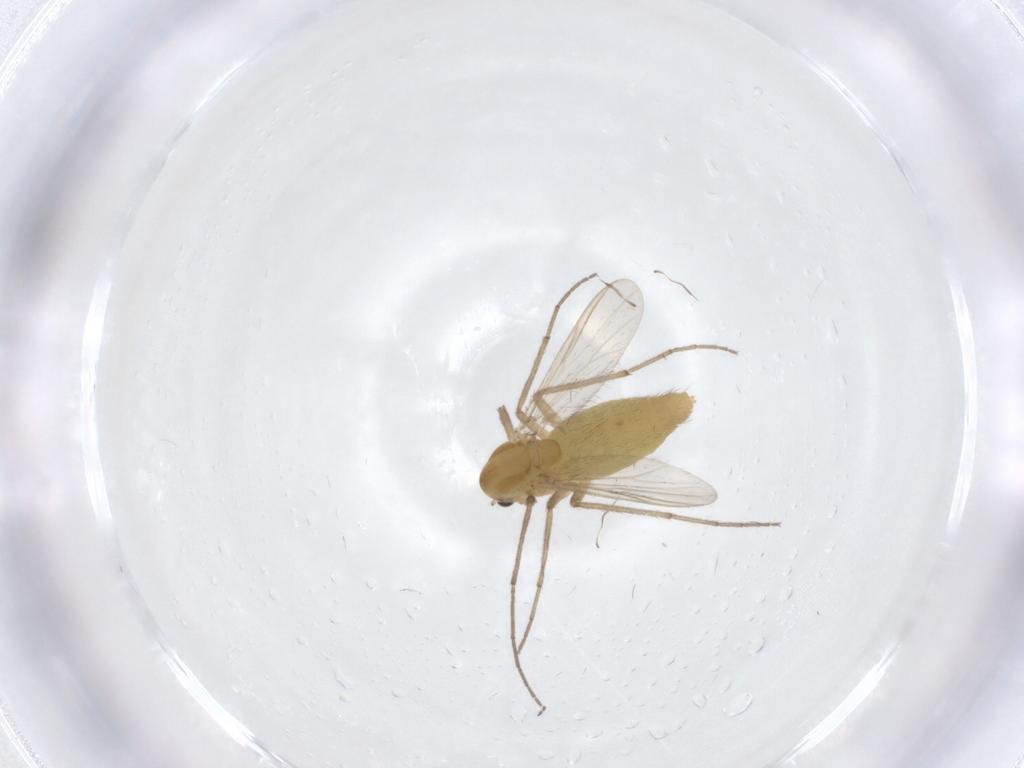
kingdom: Animalia
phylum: Arthropoda
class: Insecta
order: Diptera
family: Chironomidae
